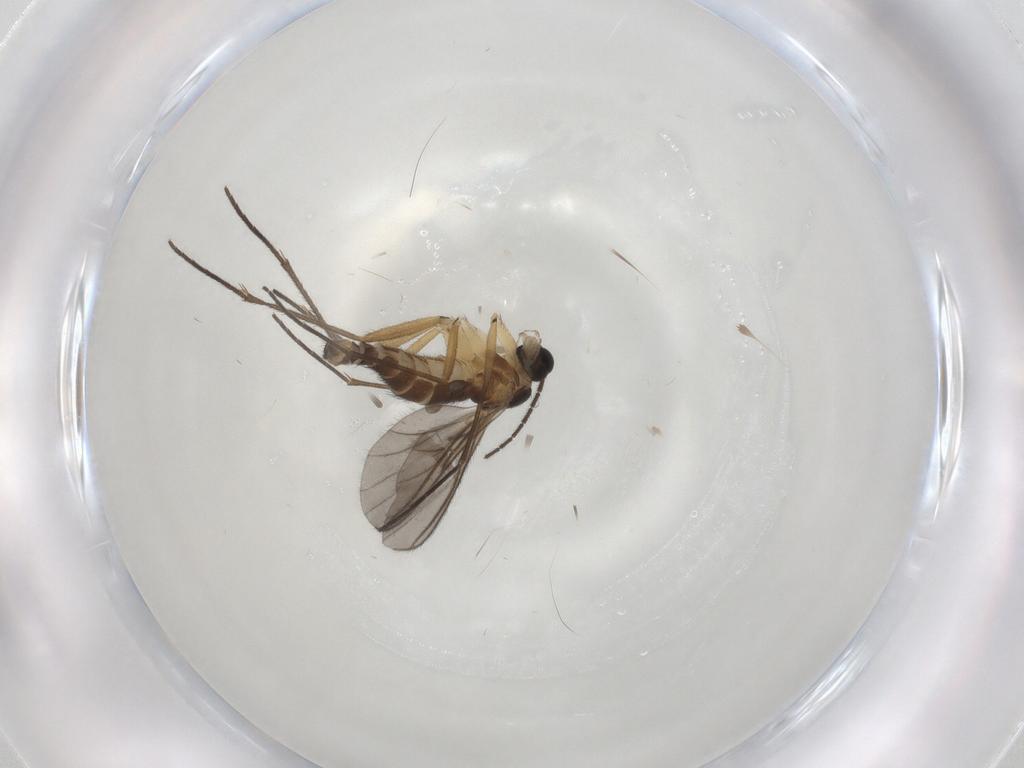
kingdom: Animalia
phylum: Arthropoda
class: Insecta
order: Diptera
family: Sciaridae
